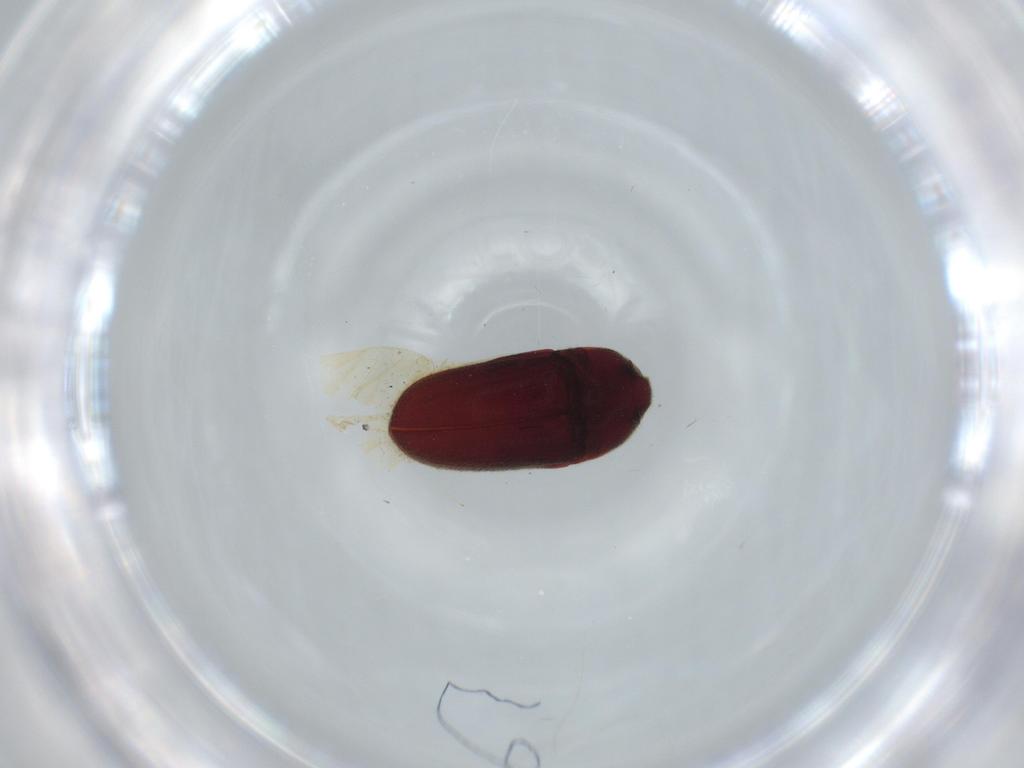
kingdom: Animalia
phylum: Arthropoda
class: Insecta
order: Coleoptera
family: Throscidae
